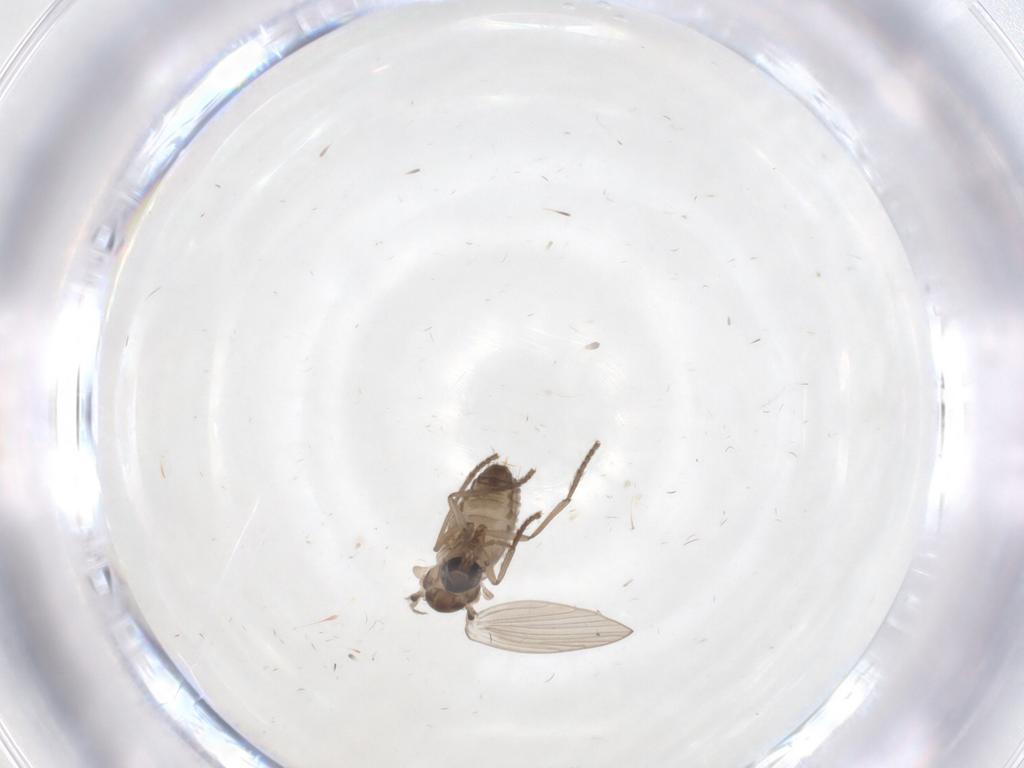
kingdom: Animalia
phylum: Arthropoda
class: Insecta
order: Diptera
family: Psychodidae
